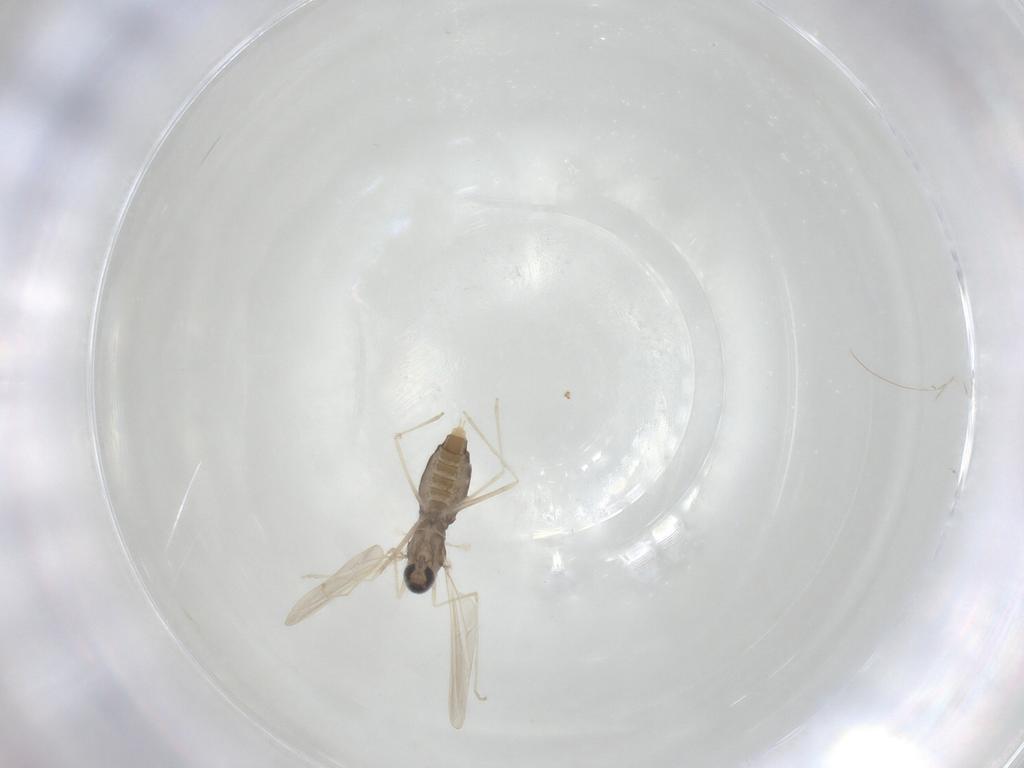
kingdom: Animalia
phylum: Arthropoda
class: Insecta
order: Diptera
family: Cecidomyiidae
